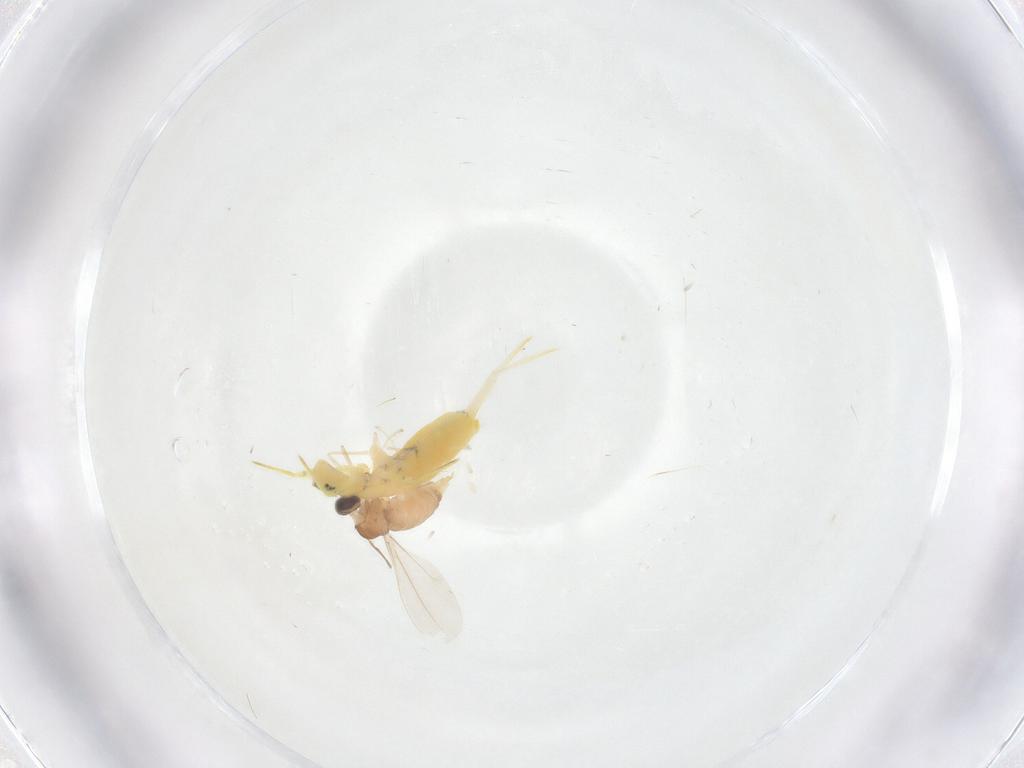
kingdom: Animalia
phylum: Arthropoda
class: Insecta
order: Diptera
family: Cecidomyiidae
